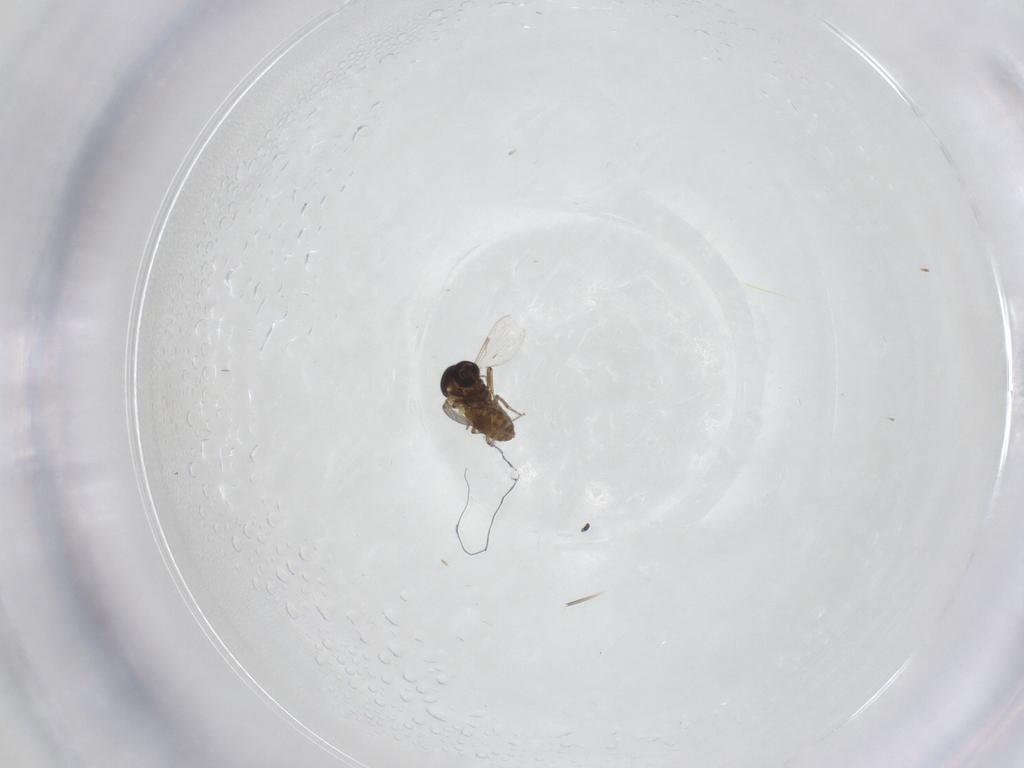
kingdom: Animalia
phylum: Arthropoda
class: Insecta
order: Diptera
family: Ceratopogonidae
